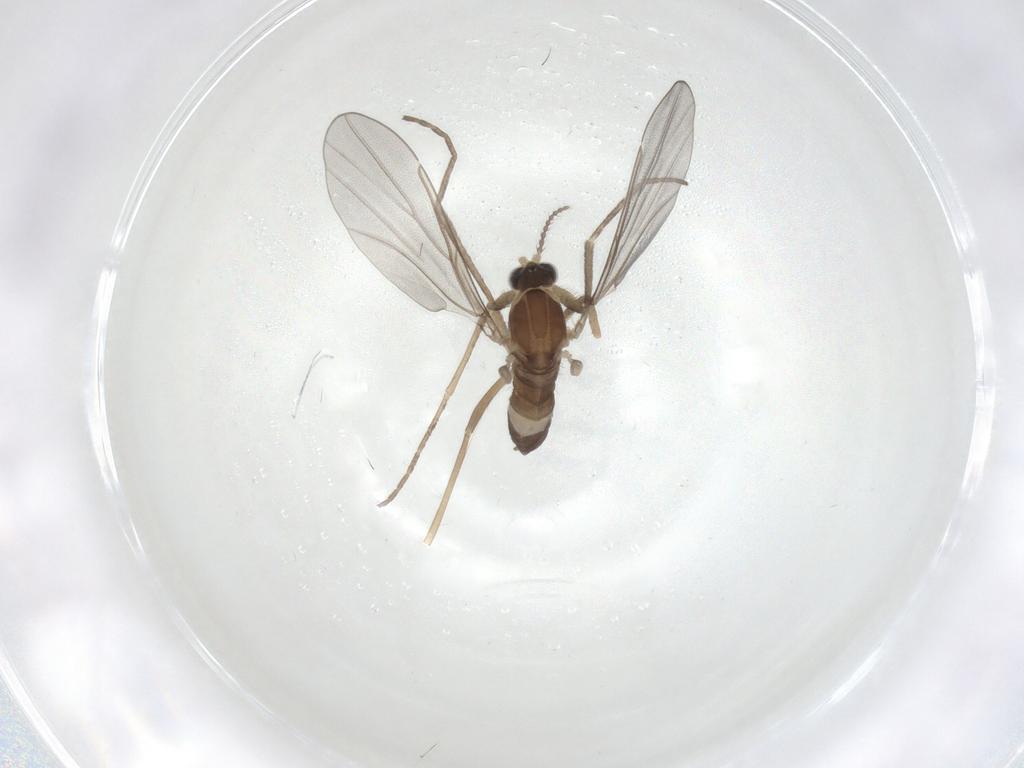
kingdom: Animalia
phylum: Arthropoda
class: Insecta
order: Diptera
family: Cecidomyiidae
